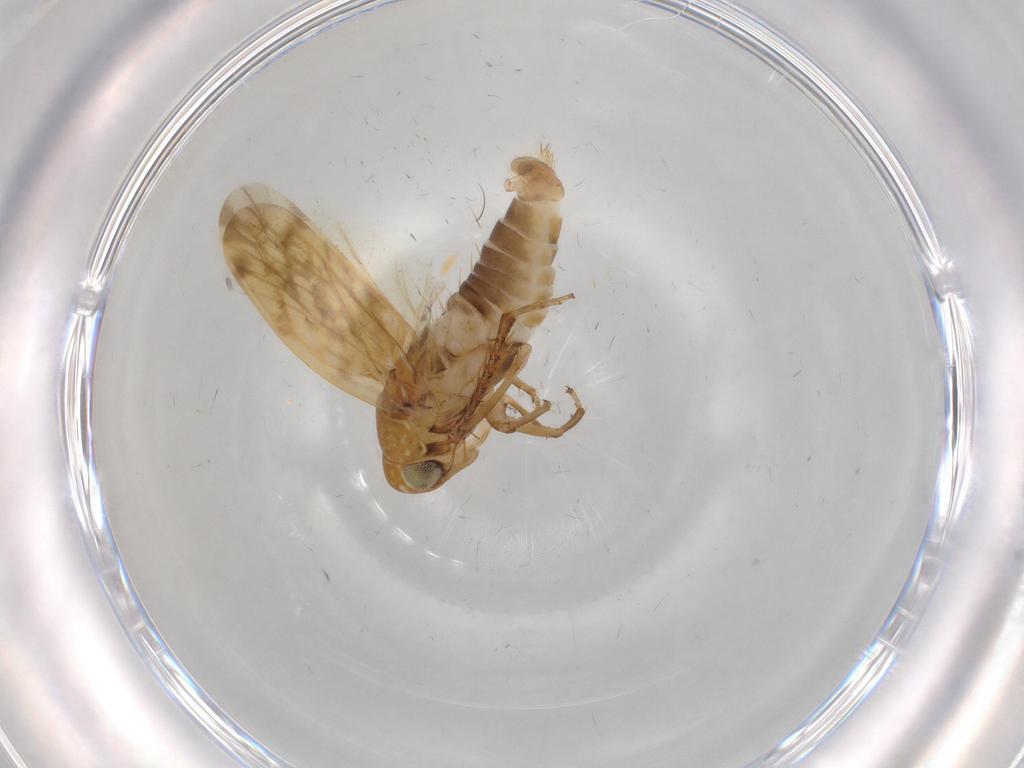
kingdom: Animalia
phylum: Arthropoda
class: Insecta
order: Hemiptera
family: Cicadellidae
